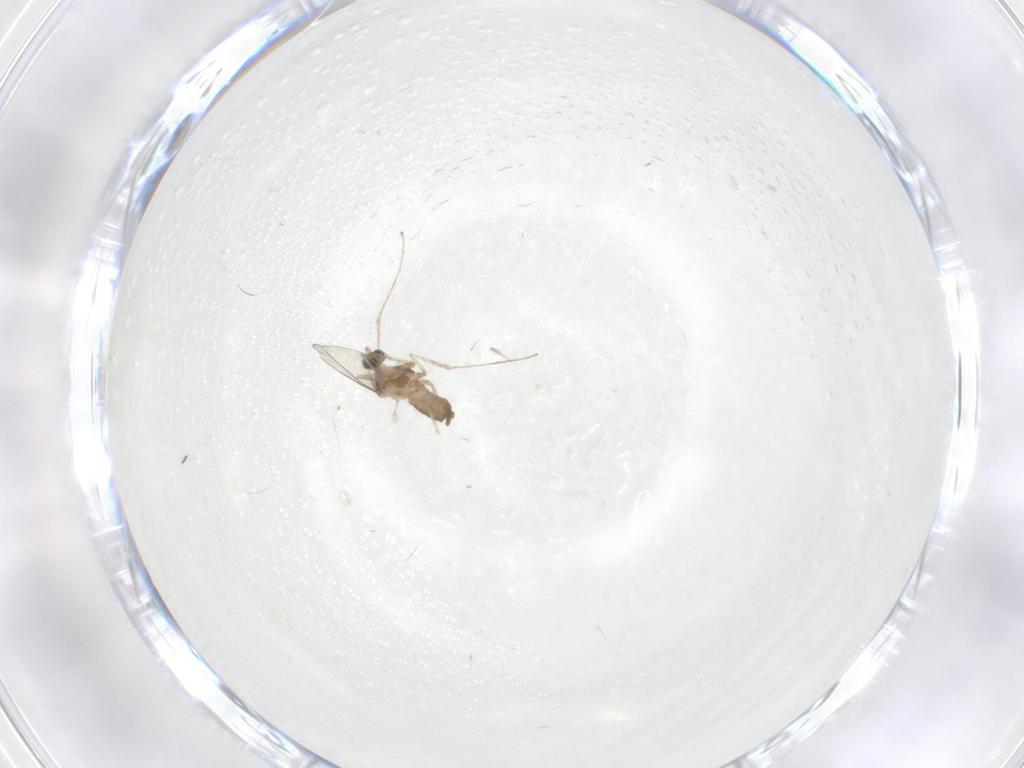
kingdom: Animalia
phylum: Arthropoda
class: Insecta
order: Diptera
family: Cecidomyiidae
